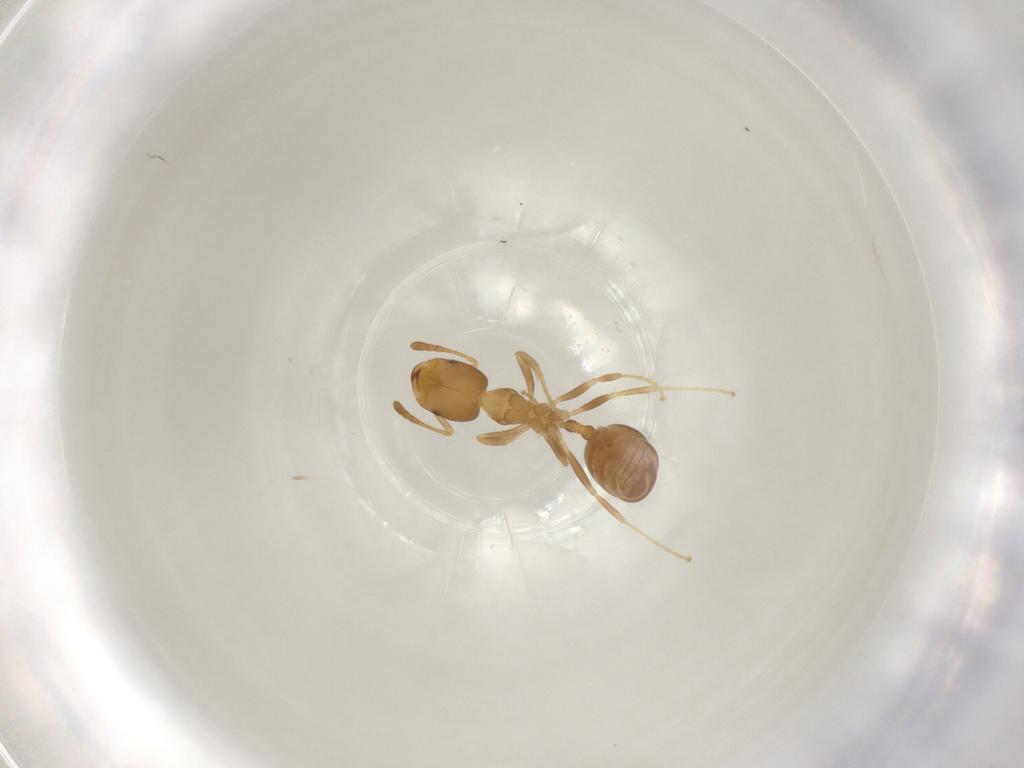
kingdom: Animalia
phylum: Arthropoda
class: Insecta
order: Hymenoptera
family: Formicidae
